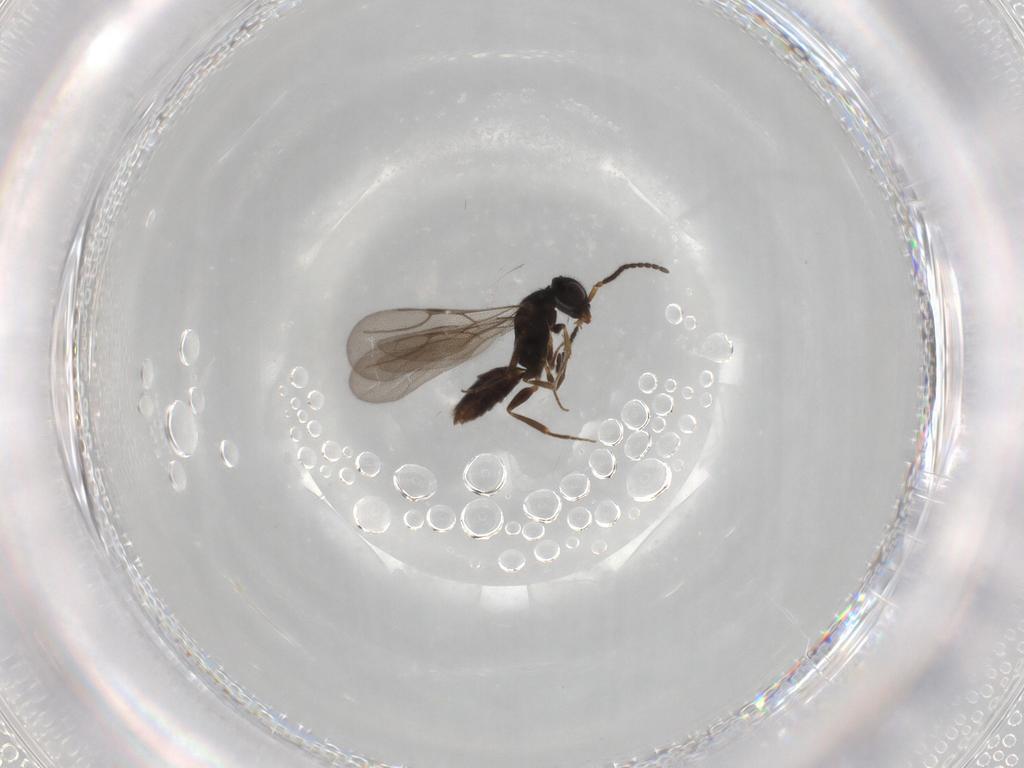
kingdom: Animalia
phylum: Arthropoda
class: Insecta
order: Hymenoptera
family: Bethylidae
